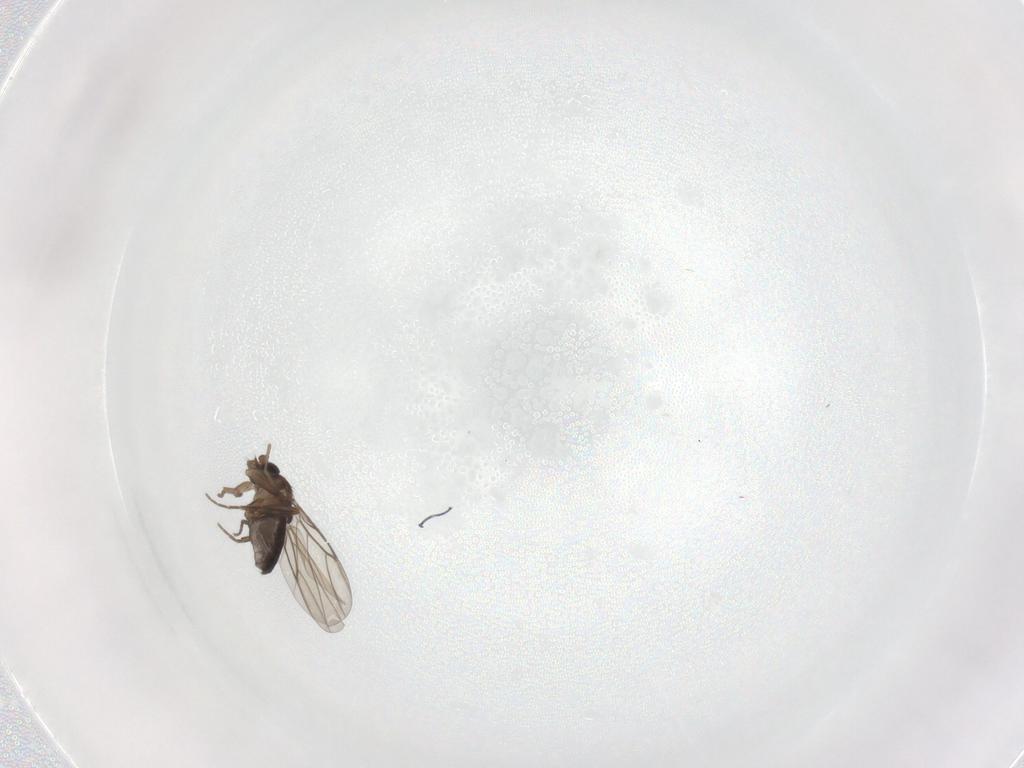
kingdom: Animalia
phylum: Arthropoda
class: Insecta
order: Diptera
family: Phoridae
